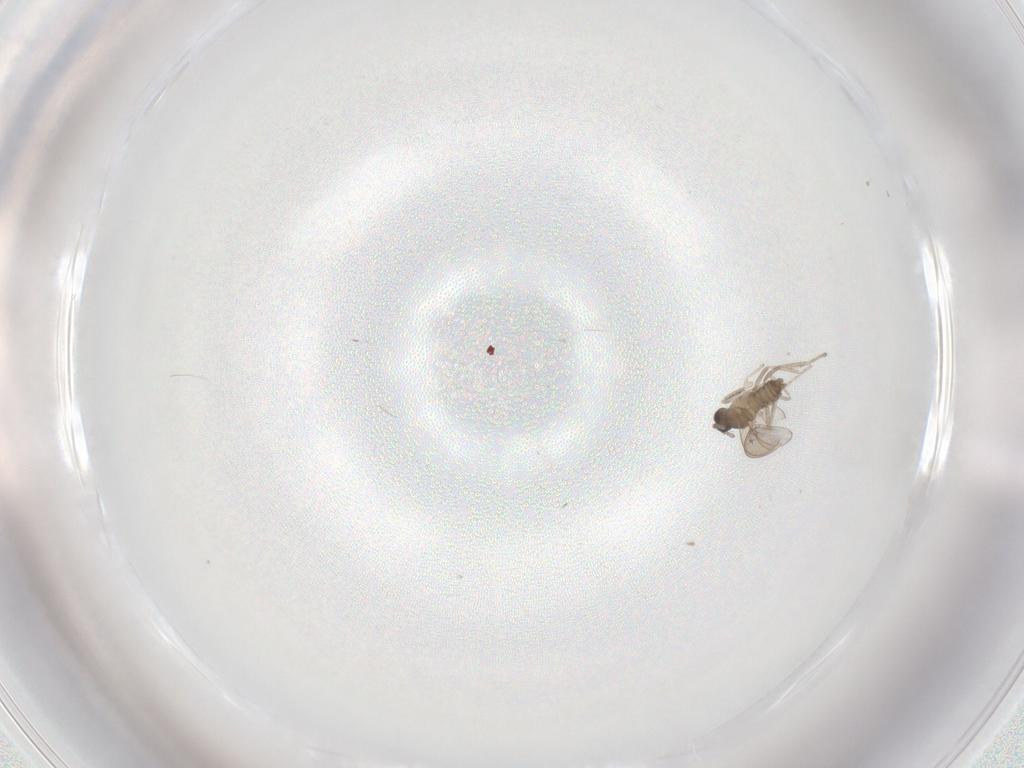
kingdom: Animalia
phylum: Arthropoda
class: Insecta
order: Diptera
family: Cecidomyiidae
